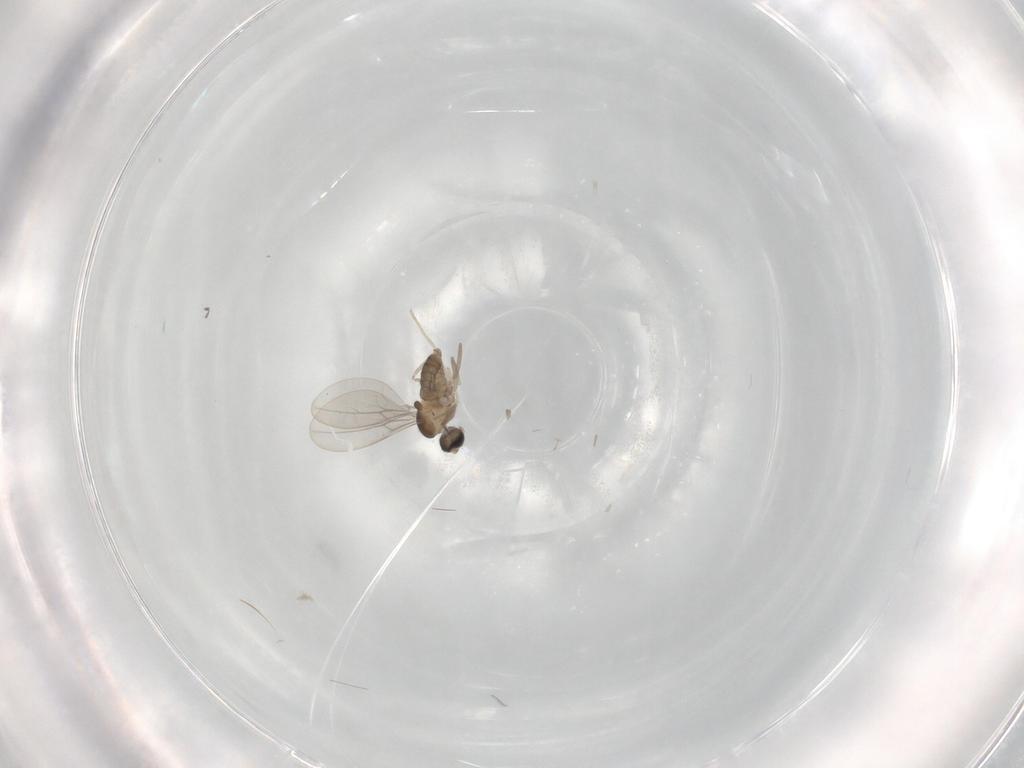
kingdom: Animalia
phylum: Arthropoda
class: Insecta
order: Diptera
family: Cecidomyiidae
